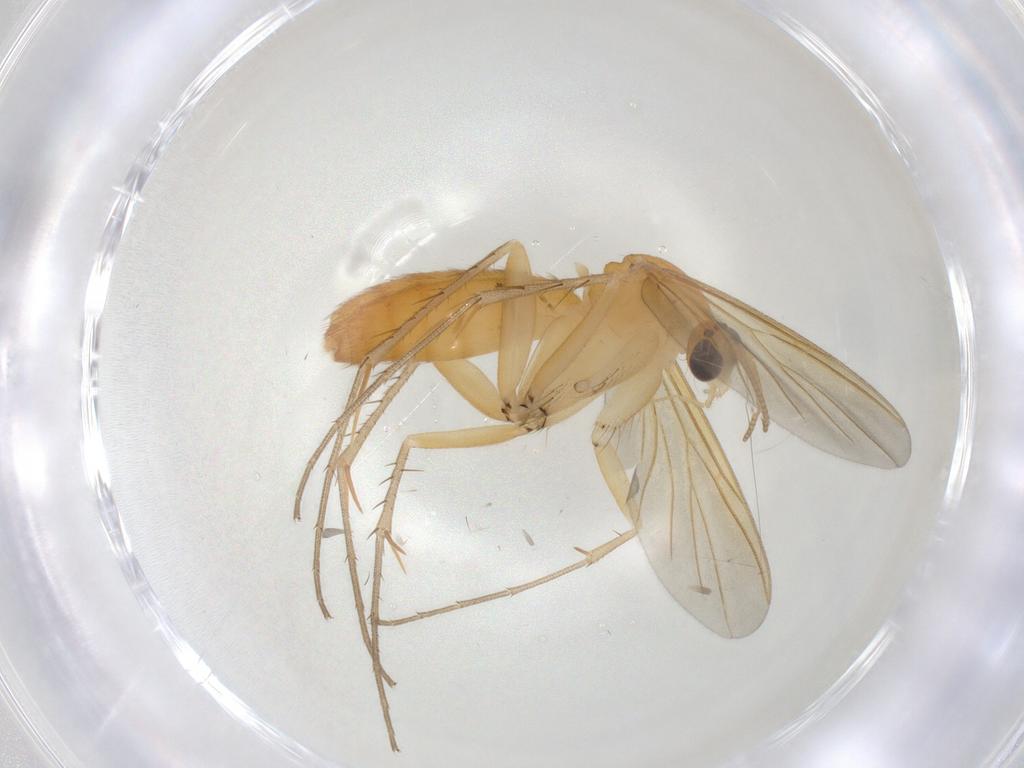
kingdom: Animalia
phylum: Arthropoda
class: Insecta
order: Diptera
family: Mycetophilidae
